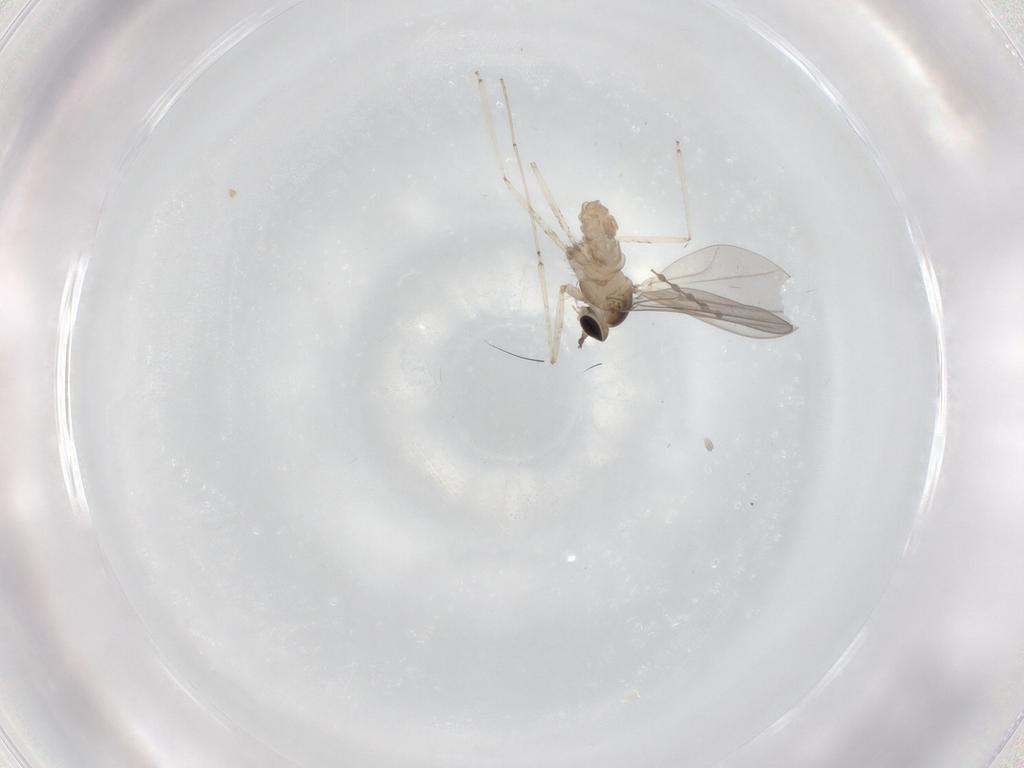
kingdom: Animalia
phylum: Arthropoda
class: Insecta
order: Diptera
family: Cecidomyiidae
